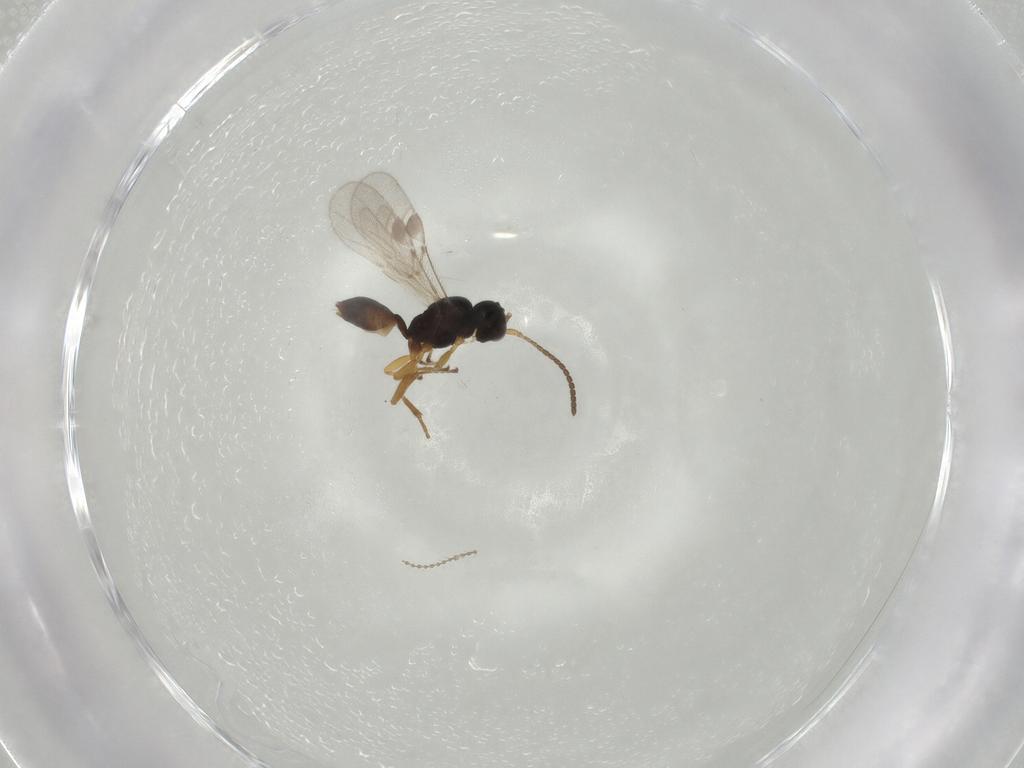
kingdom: Animalia
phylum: Arthropoda
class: Insecta
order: Hymenoptera
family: Braconidae
